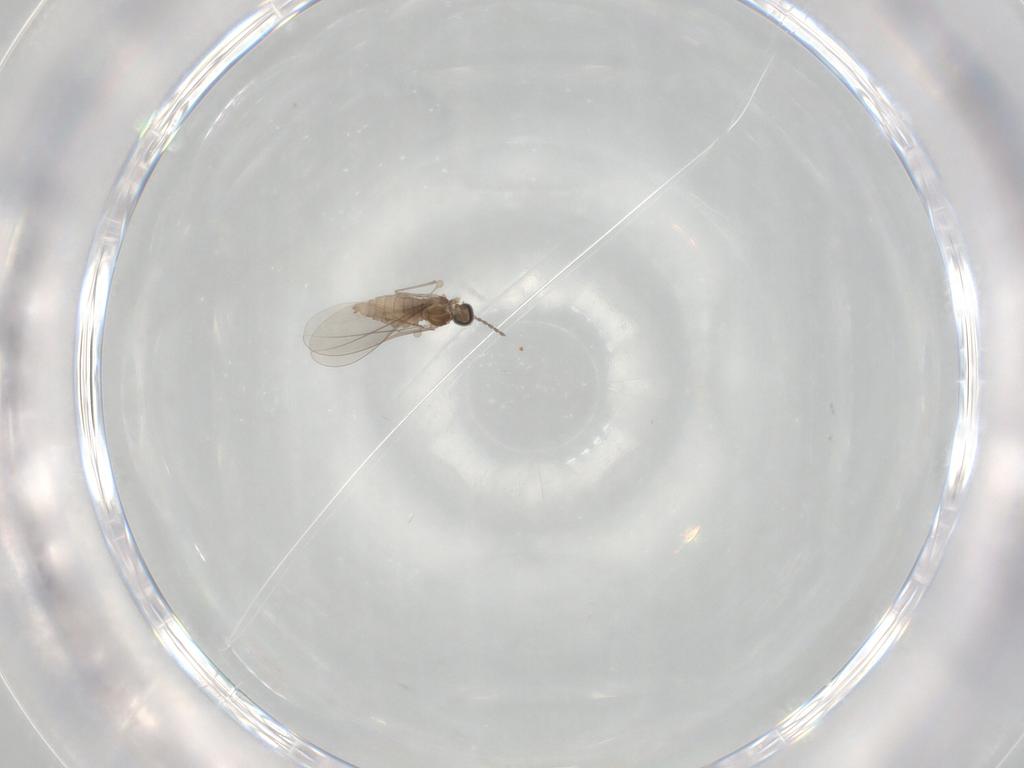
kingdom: Animalia
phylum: Arthropoda
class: Insecta
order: Diptera
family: Cecidomyiidae
